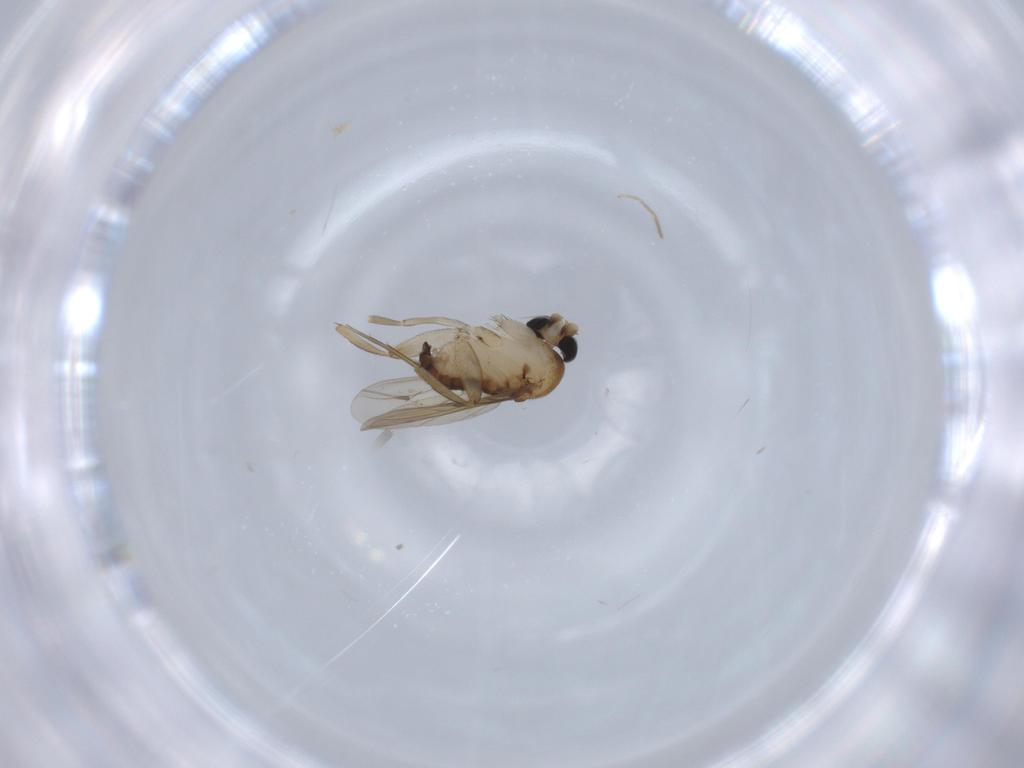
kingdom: Animalia
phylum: Arthropoda
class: Insecta
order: Diptera
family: Phoridae
